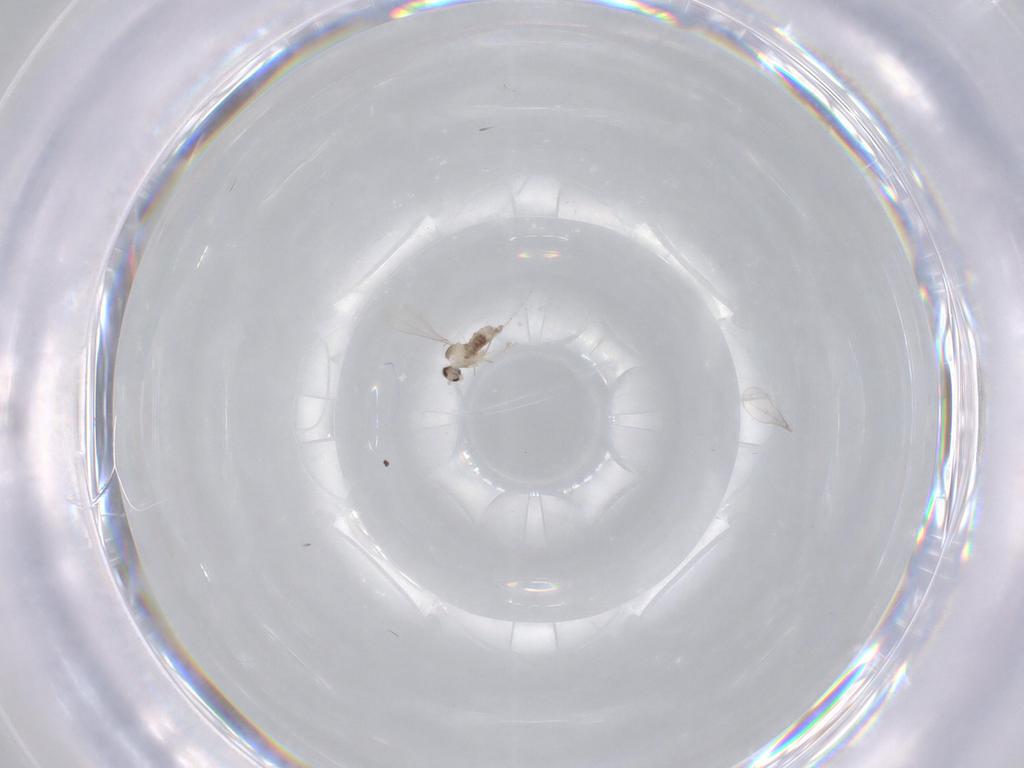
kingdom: Animalia
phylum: Arthropoda
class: Insecta
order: Diptera
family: Cecidomyiidae
